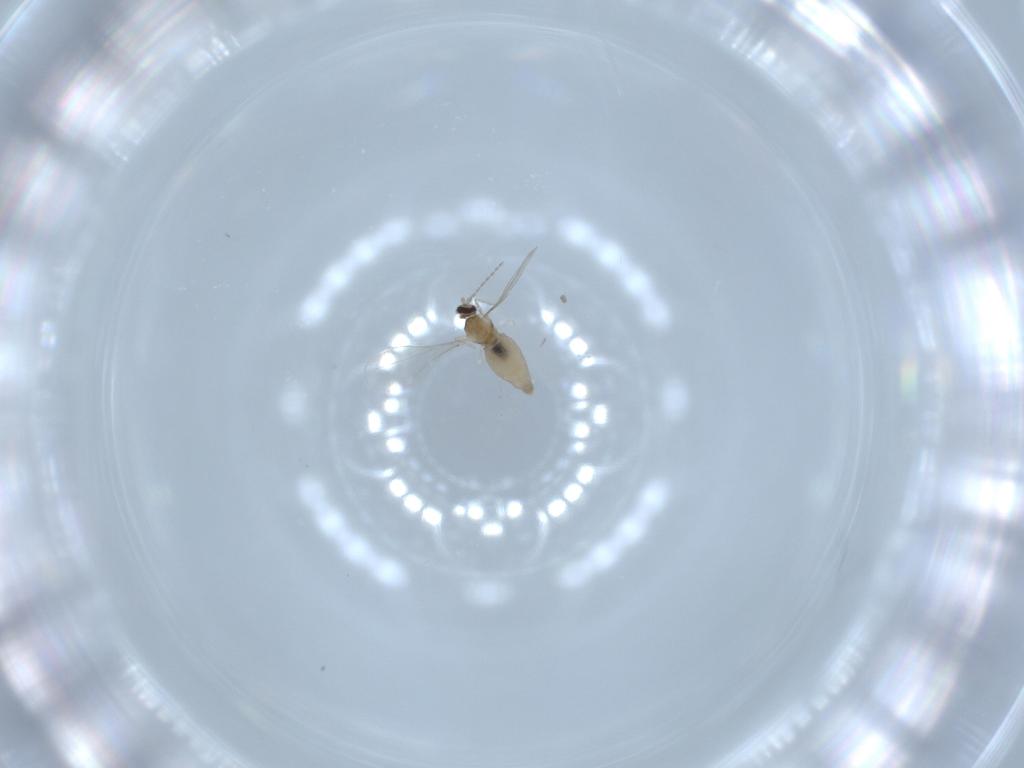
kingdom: Animalia
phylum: Arthropoda
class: Insecta
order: Diptera
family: Cecidomyiidae
